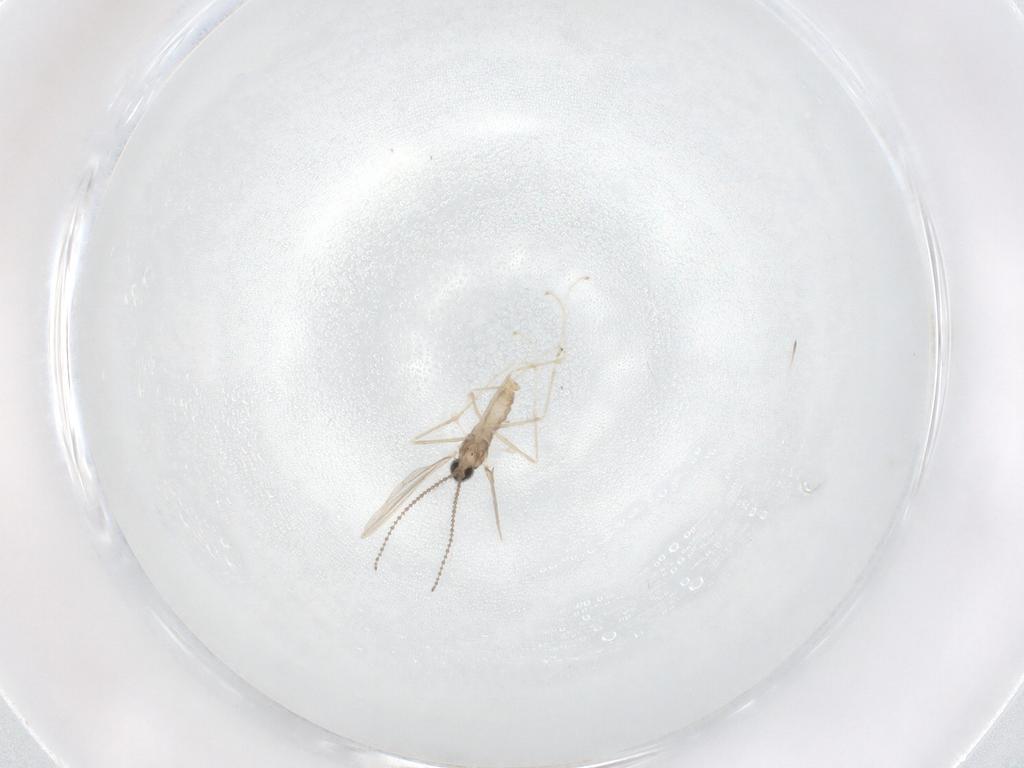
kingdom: Animalia
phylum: Arthropoda
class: Insecta
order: Diptera
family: Cecidomyiidae
